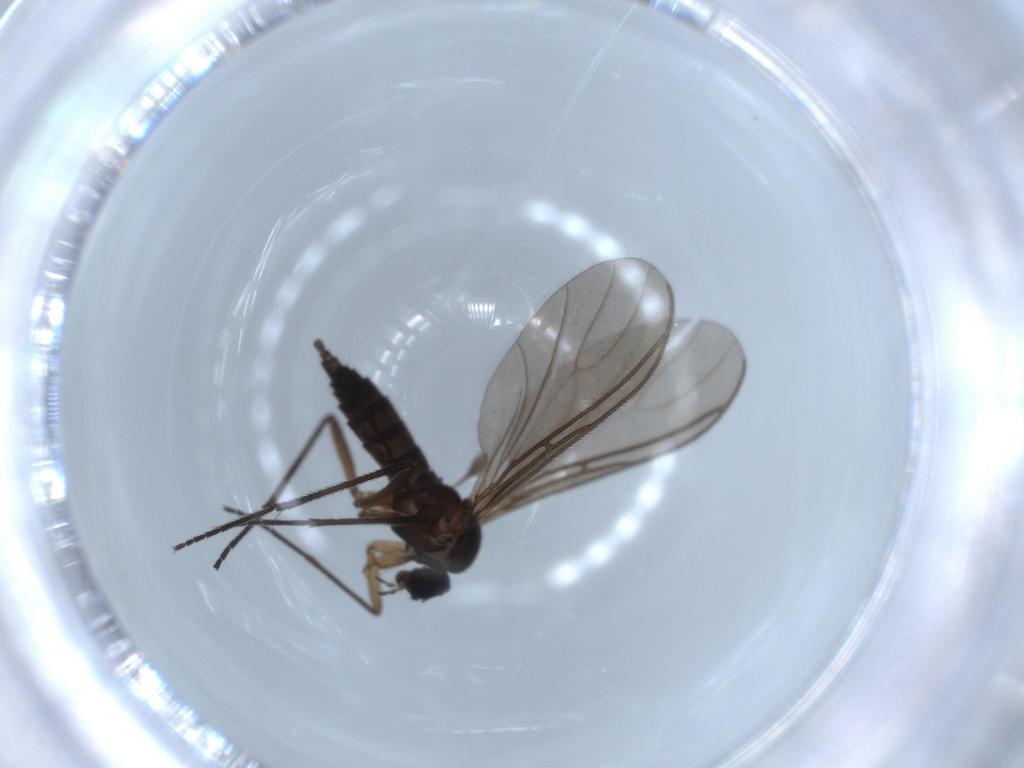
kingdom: Animalia
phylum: Arthropoda
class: Insecta
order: Diptera
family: Sciaridae
